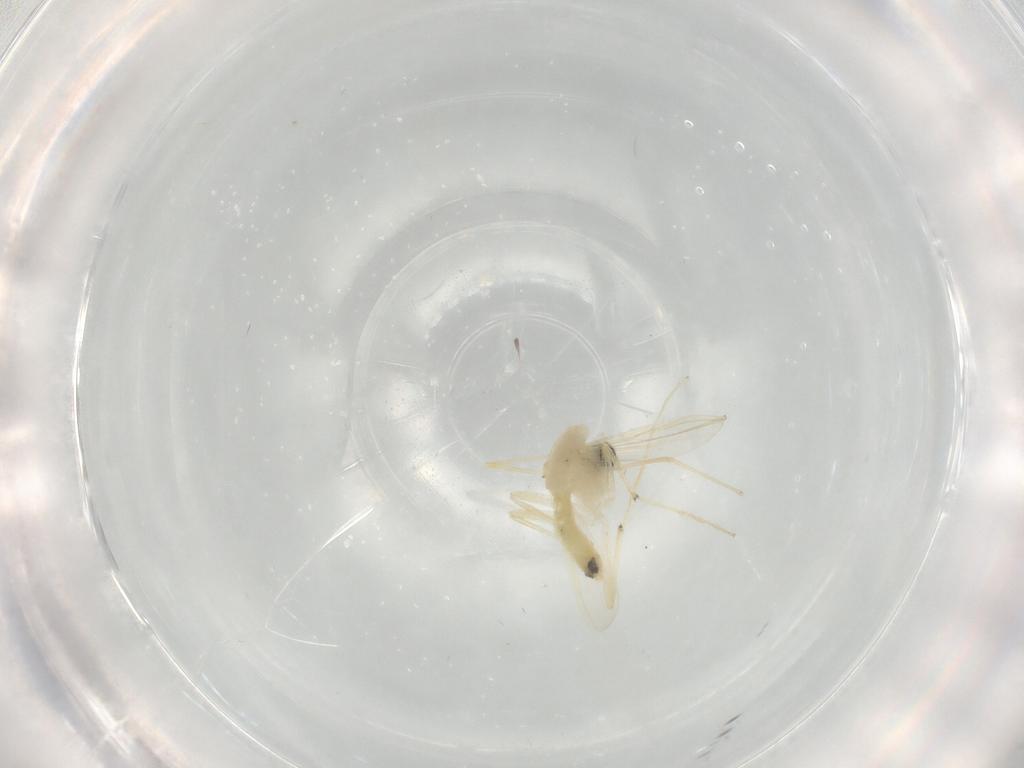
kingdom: Animalia
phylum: Arthropoda
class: Insecta
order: Diptera
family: Chironomidae
